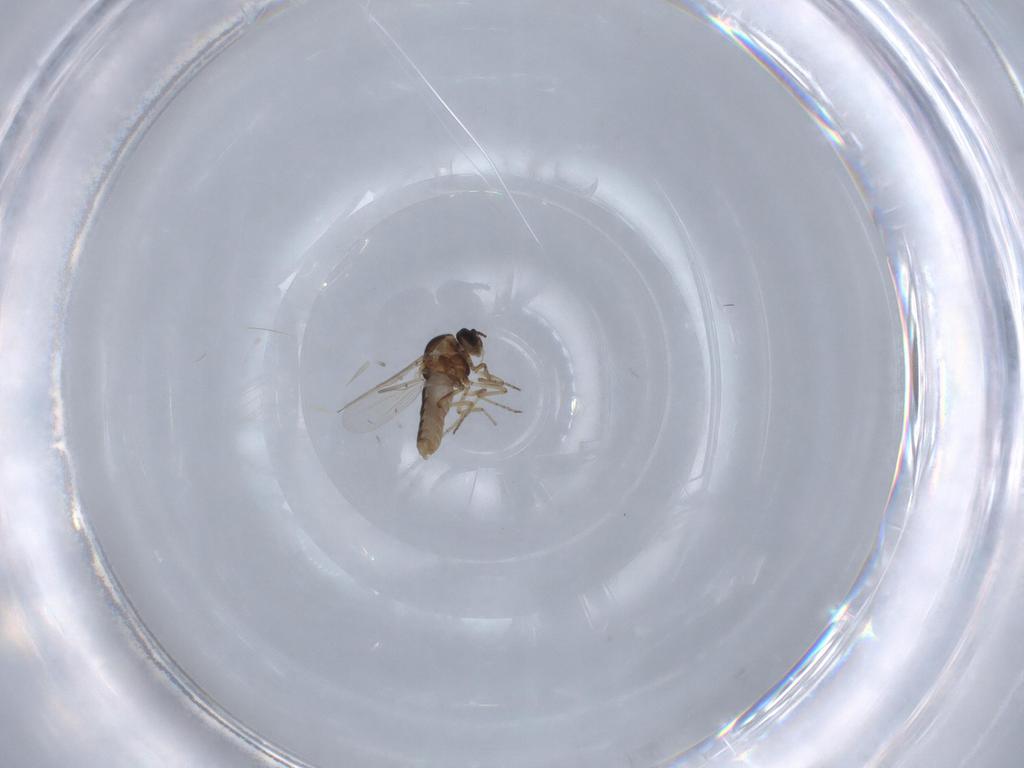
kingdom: Animalia
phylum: Arthropoda
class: Insecta
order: Diptera
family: Ceratopogonidae
